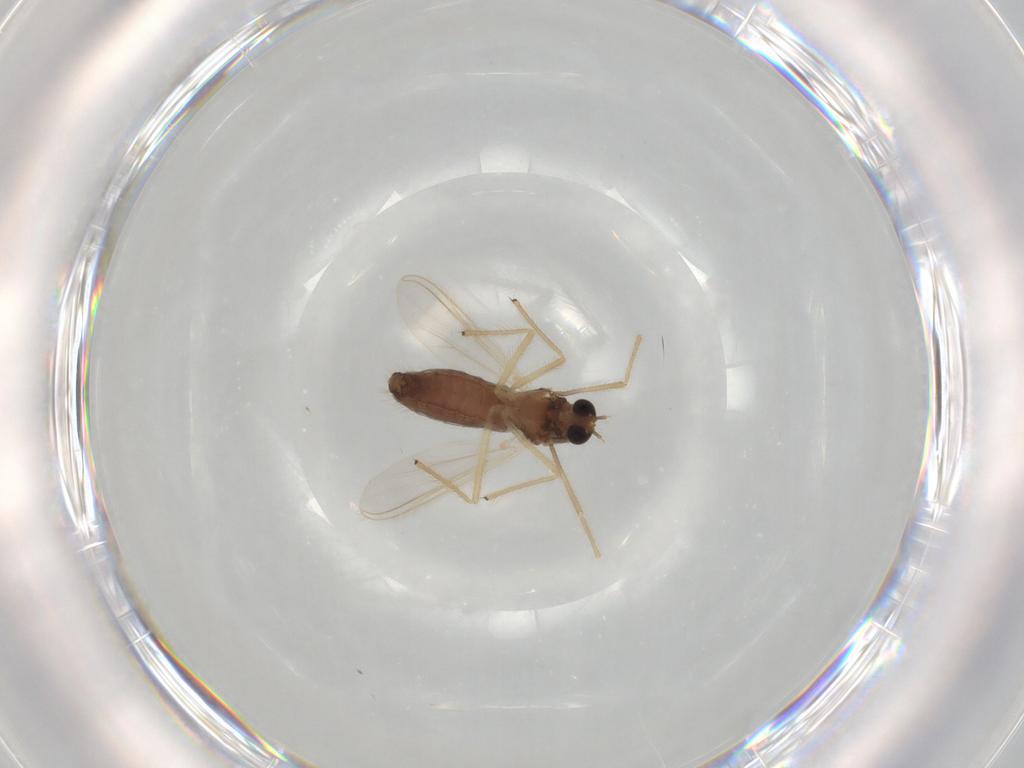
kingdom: Animalia
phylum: Arthropoda
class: Insecta
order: Diptera
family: Chironomidae
